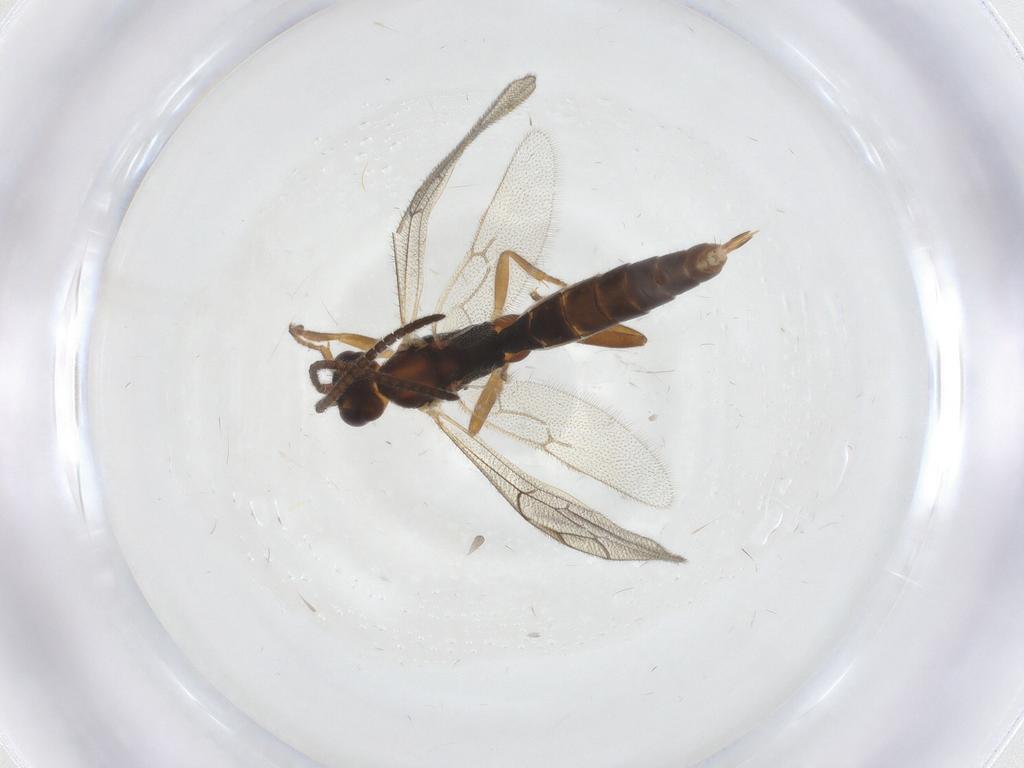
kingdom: Animalia
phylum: Arthropoda
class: Insecta
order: Hymenoptera
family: Ichneumonidae
